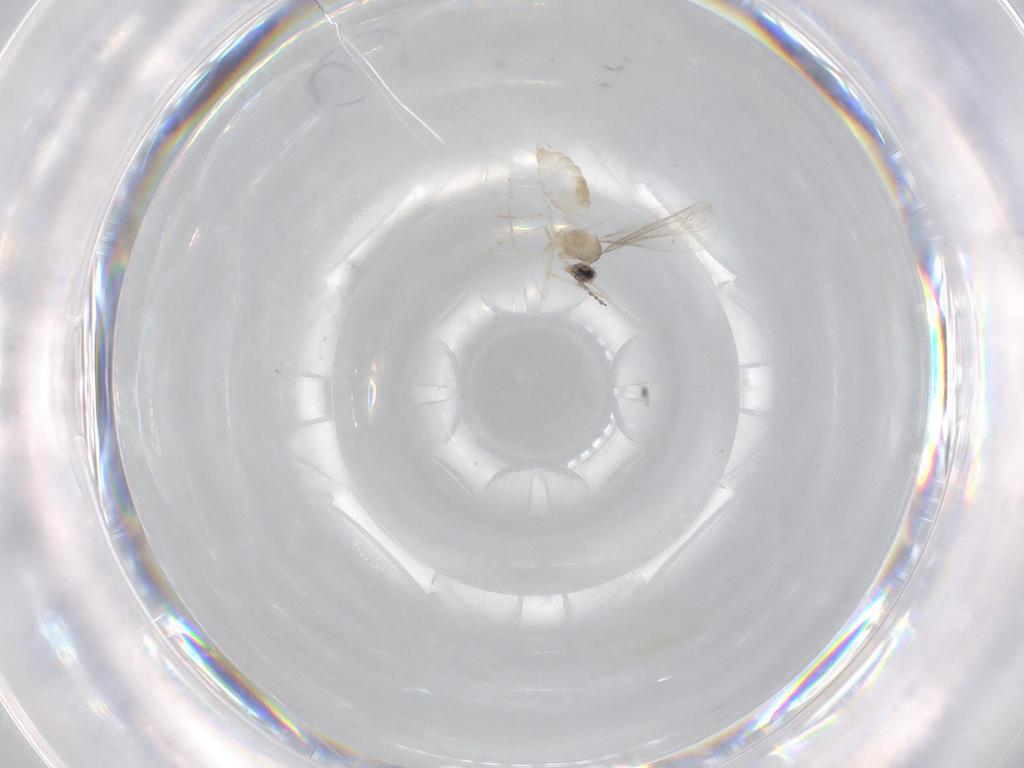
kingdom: Animalia
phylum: Arthropoda
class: Insecta
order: Diptera
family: Cecidomyiidae
